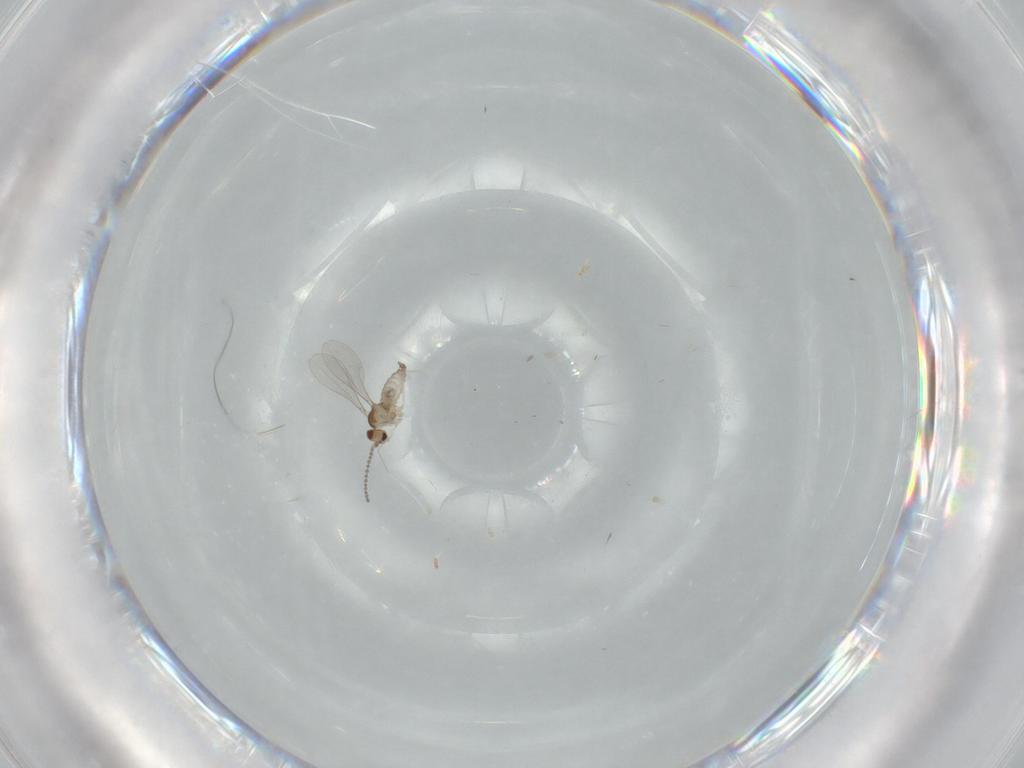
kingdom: Animalia
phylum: Arthropoda
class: Insecta
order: Diptera
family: Cecidomyiidae
